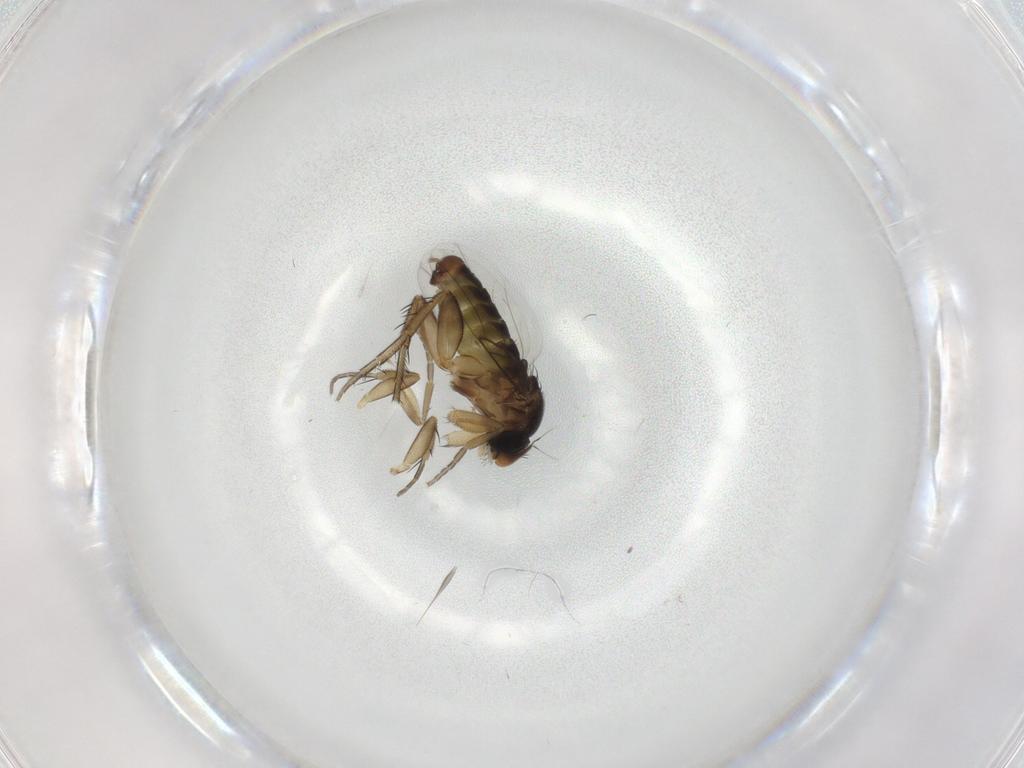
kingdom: Animalia
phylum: Arthropoda
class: Insecta
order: Diptera
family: Phoridae
